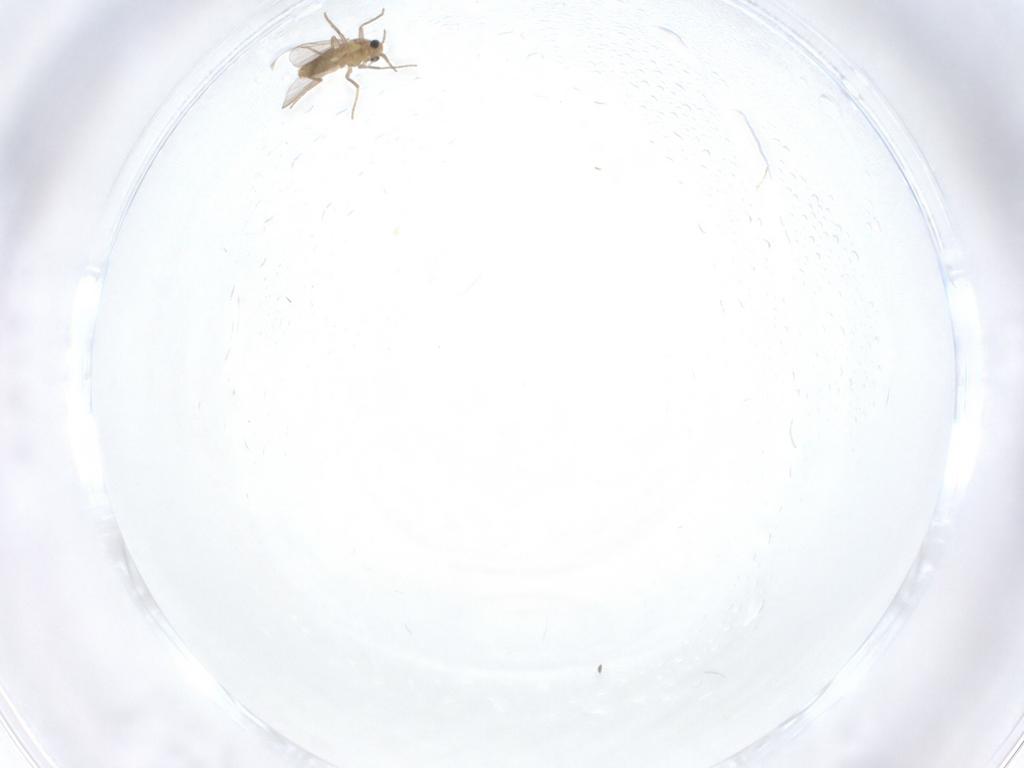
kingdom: Animalia
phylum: Arthropoda
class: Insecta
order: Diptera
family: Chironomidae
